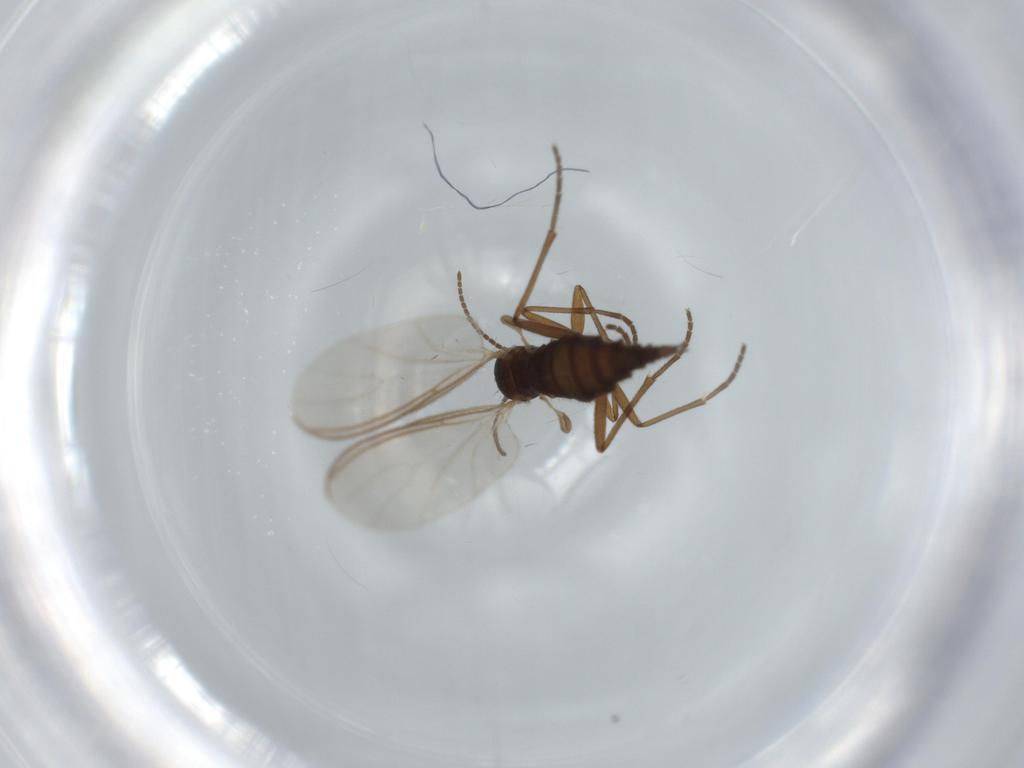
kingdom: Animalia
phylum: Arthropoda
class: Insecta
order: Diptera
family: Sciaridae
